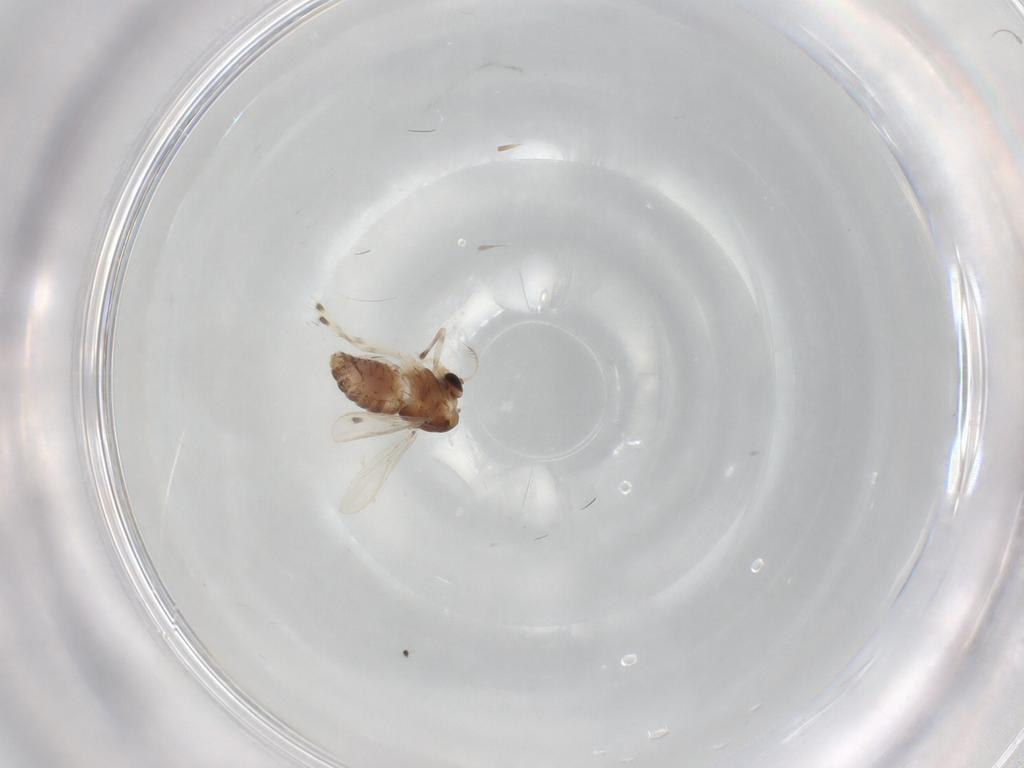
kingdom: Animalia
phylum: Arthropoda
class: Insecta
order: Diptera
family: Chironomidae
